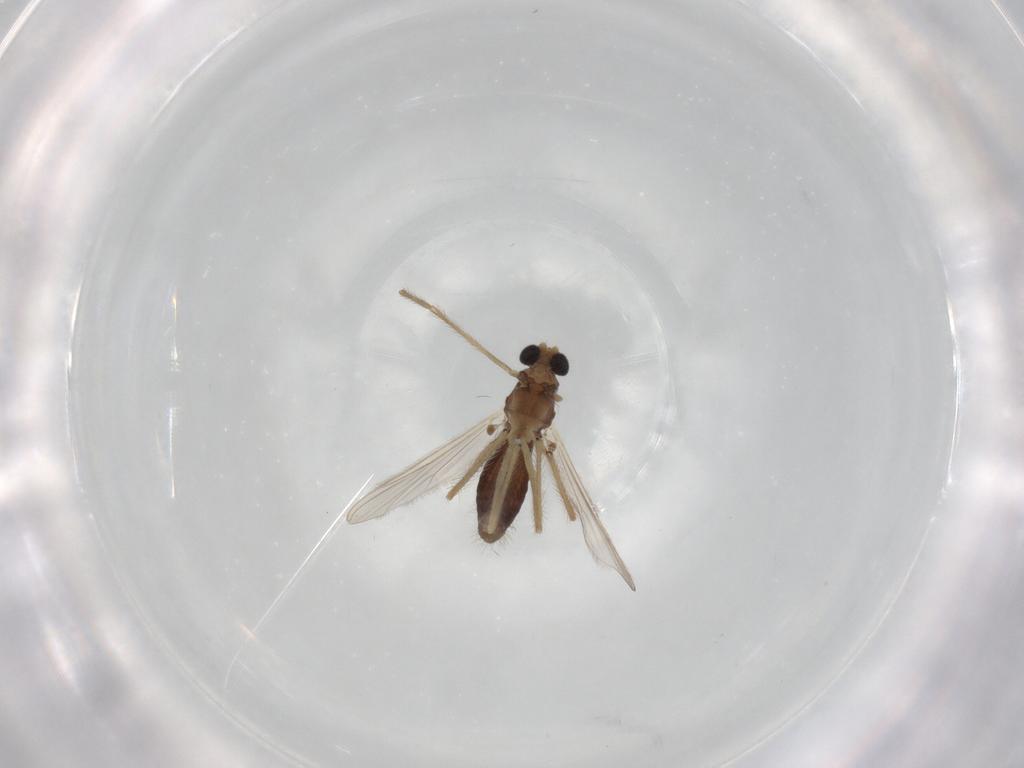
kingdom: Animalia
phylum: Arthropoda
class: Insecta
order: Diptera
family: Chironomidae
